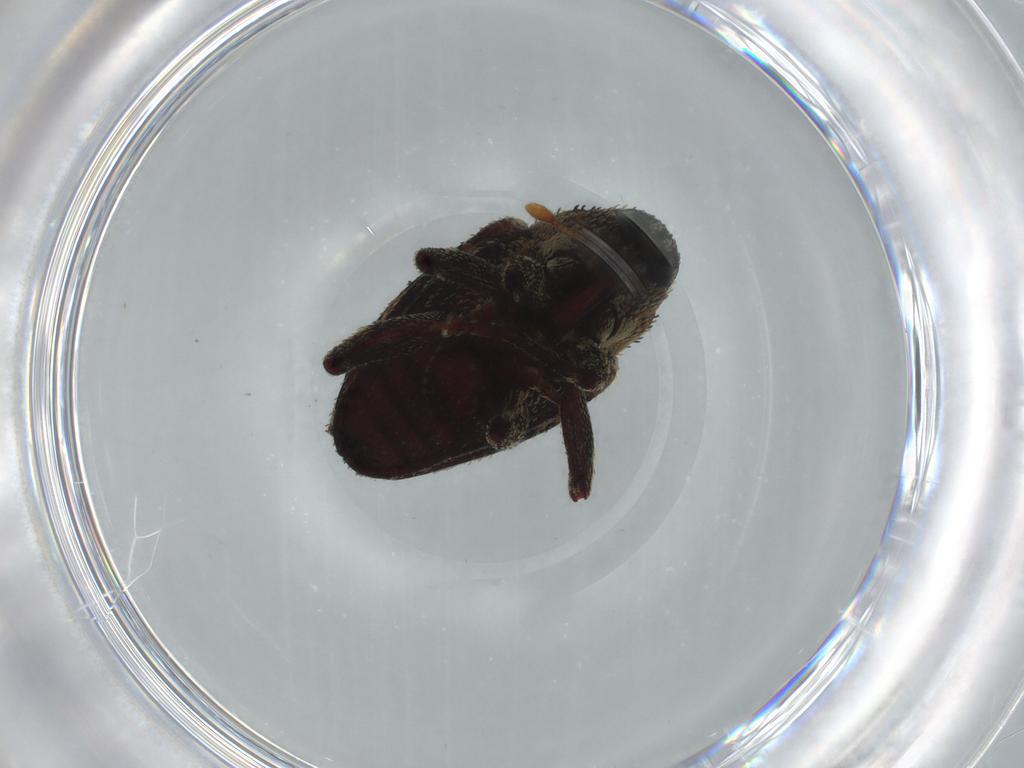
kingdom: Animalia
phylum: Arthropoda
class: Insecta
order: Coleoptera
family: Curculionidae
